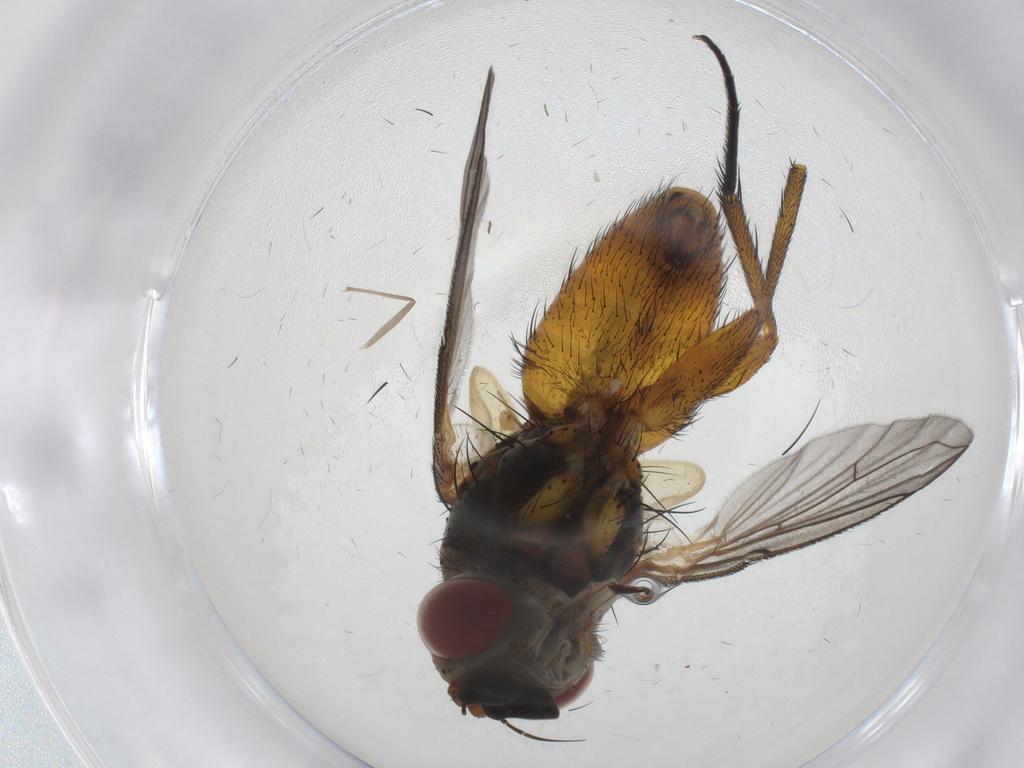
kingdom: Animalia
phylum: Arthropoda
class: Insecta
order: Diptera
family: Tachinidae
